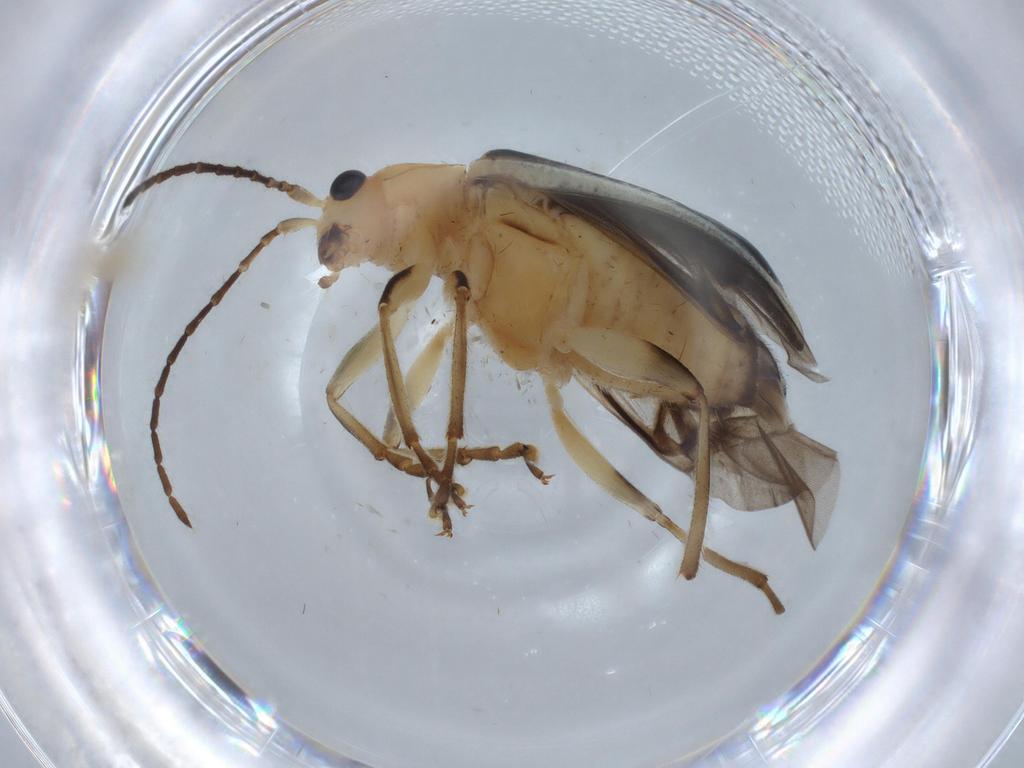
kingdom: Animalia
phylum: Arthropoda
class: Insecta
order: Coleoptera
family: Chrysomelidae
